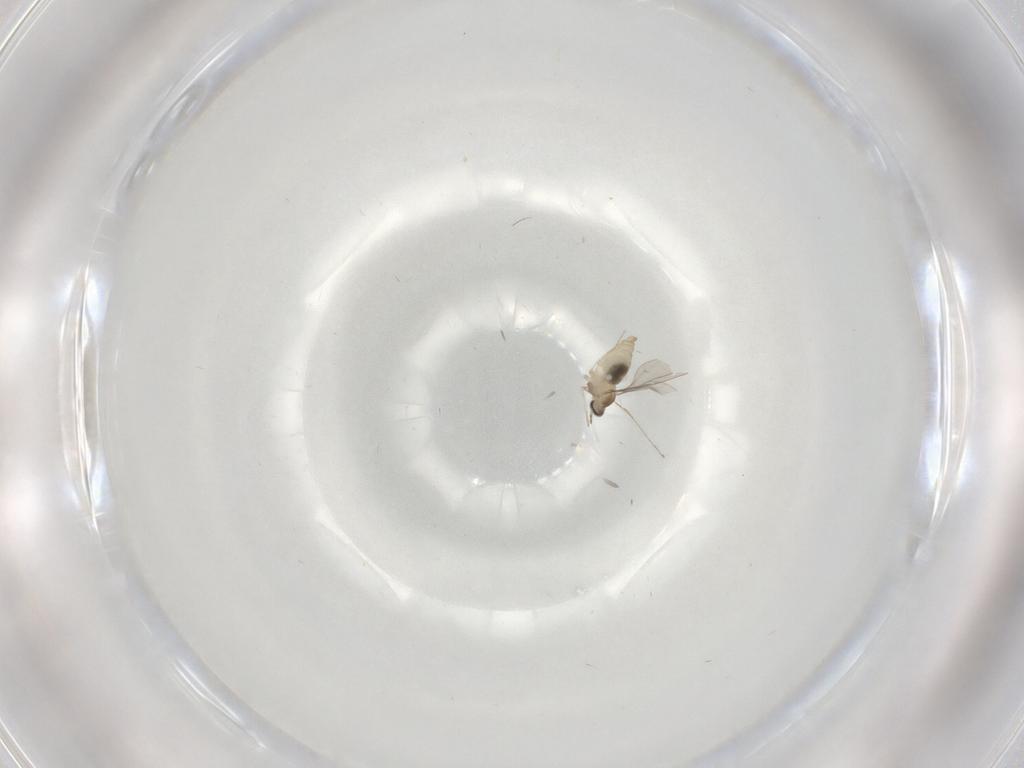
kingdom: Animalia
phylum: Arthropoda
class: Insecta
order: Diptera
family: Cecidomyiidae
